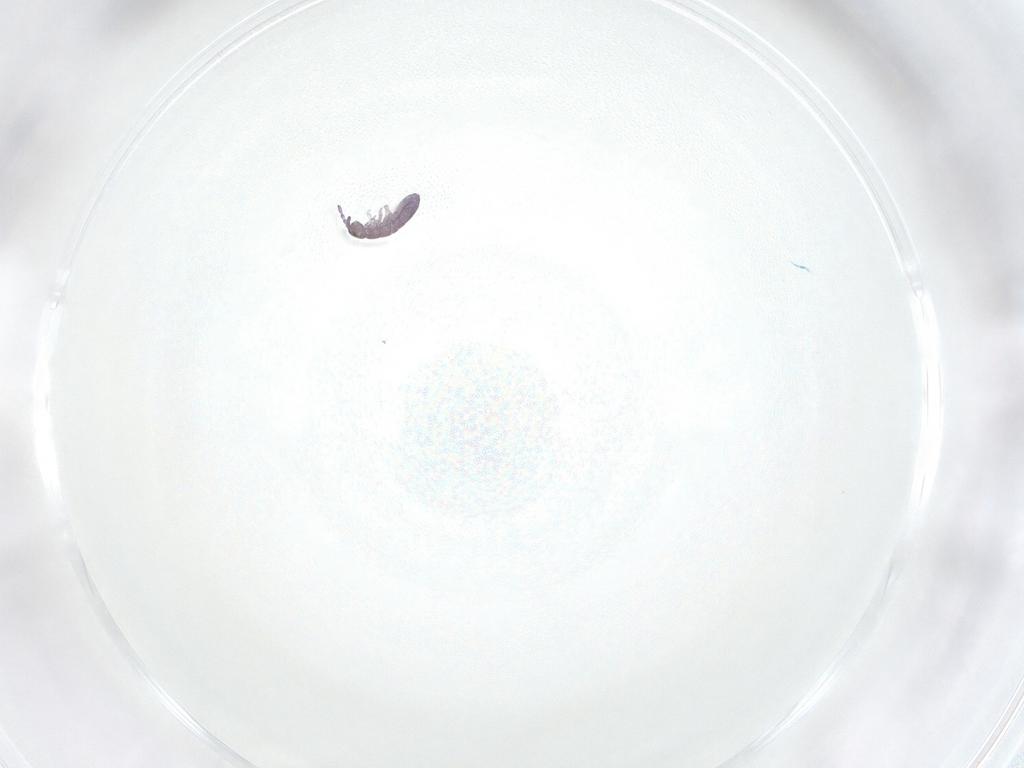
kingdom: Animalia
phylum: Arthropoda
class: Collembola
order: Entomobryomorpha
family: Isotomidae
